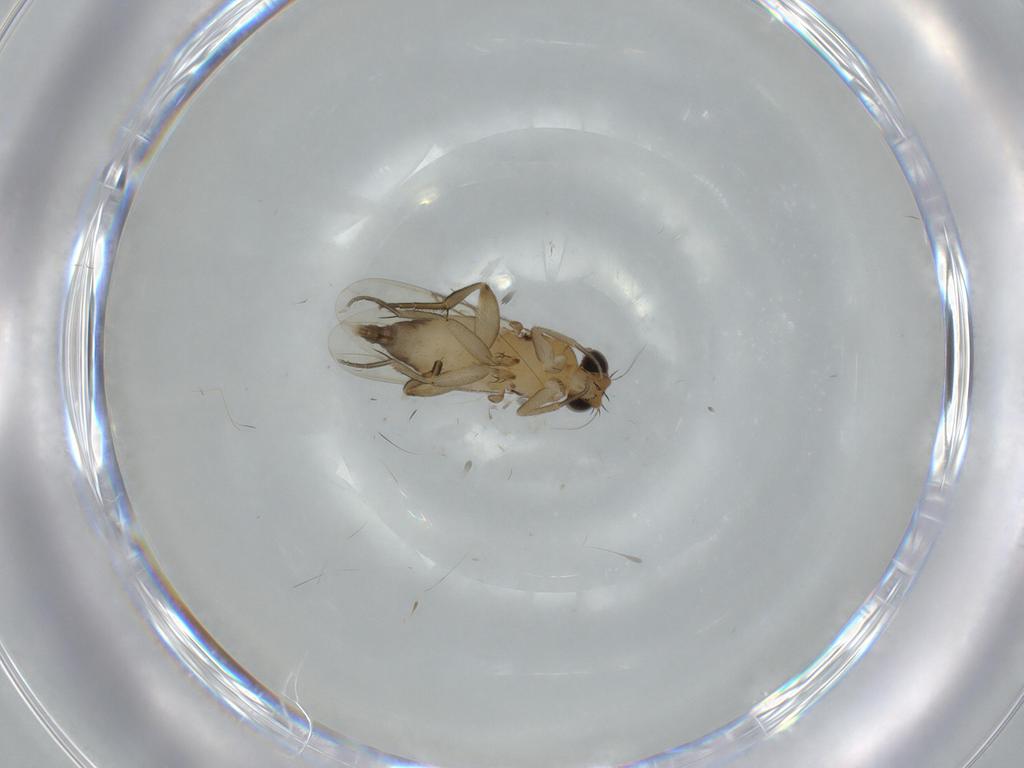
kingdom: Animalia
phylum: Arthropoda
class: Insecta
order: Diptera
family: Phoridae
